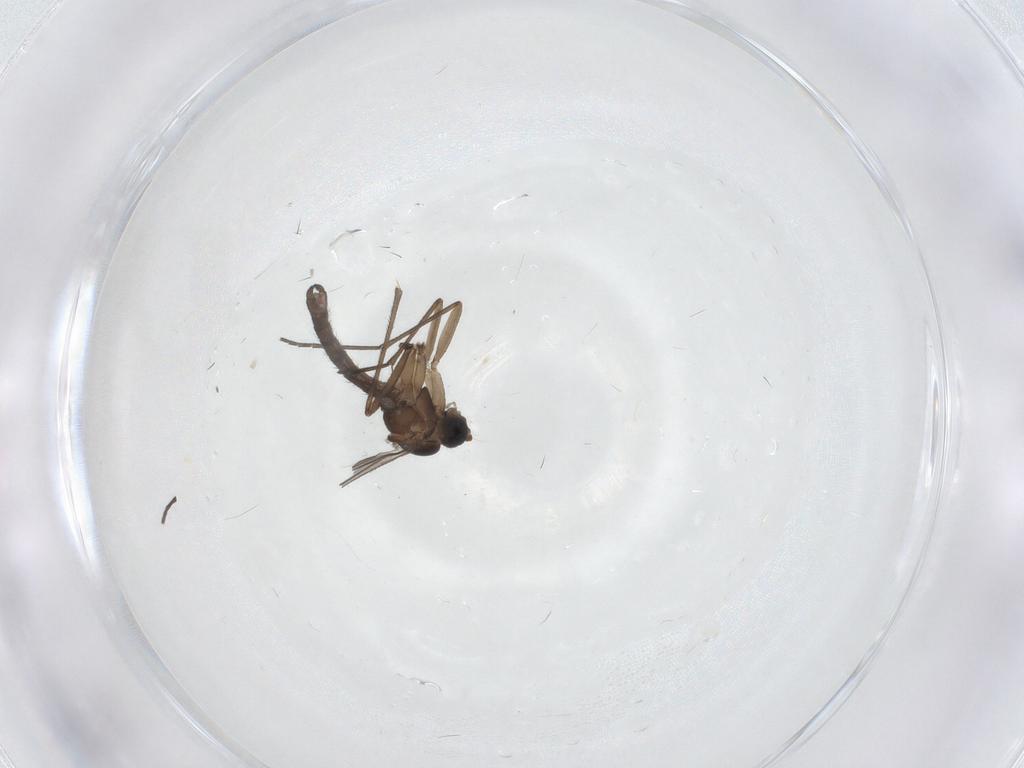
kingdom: Animalia
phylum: Arthropoda
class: Insecta
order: Diptera
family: Sciaridae
